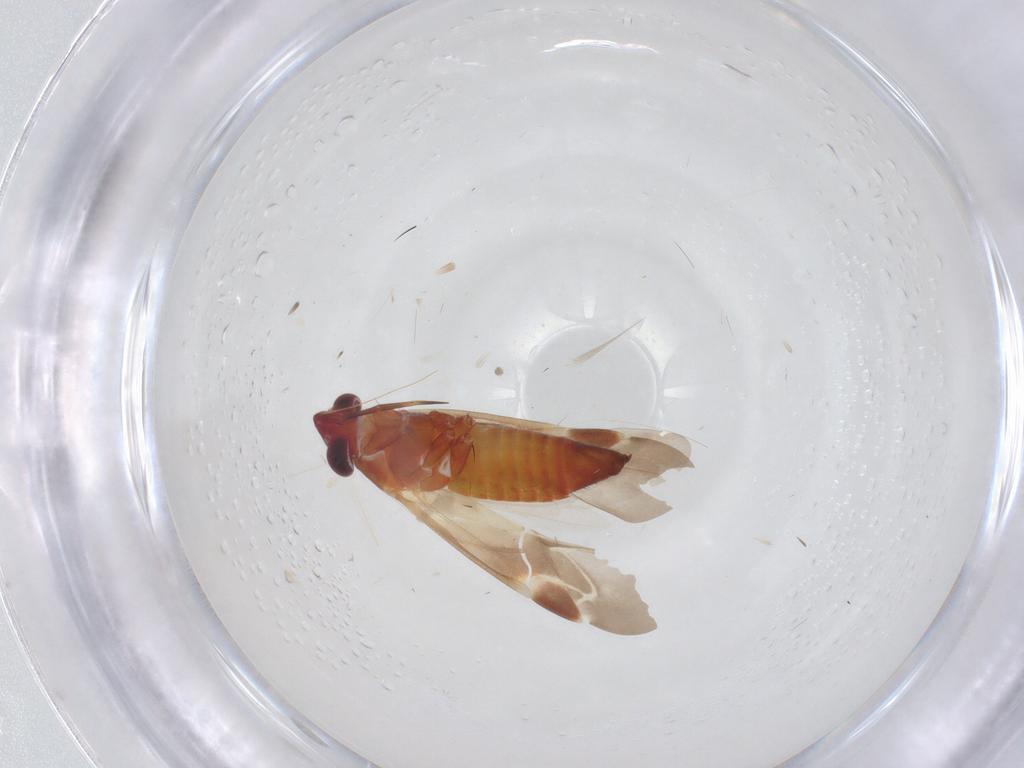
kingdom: Animalia
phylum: Arthropoda
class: Insecta
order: Hemiptera
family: Miridae
